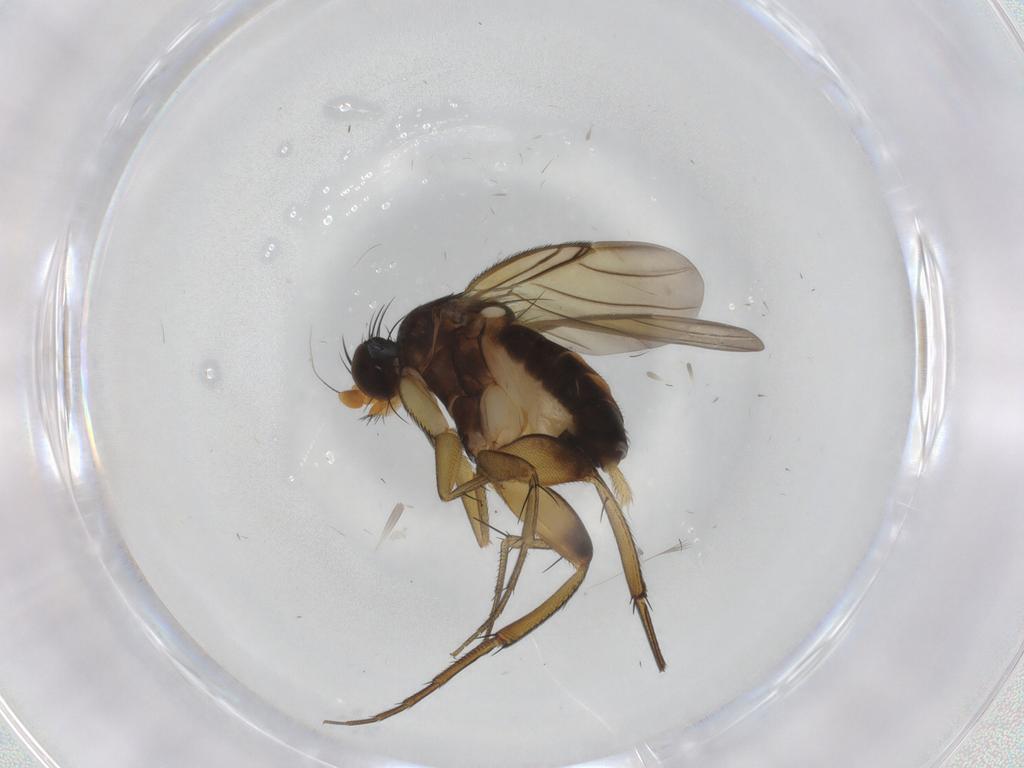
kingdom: Animalia
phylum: Arthropoda
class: Insecta
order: Diptera
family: Phoridae
